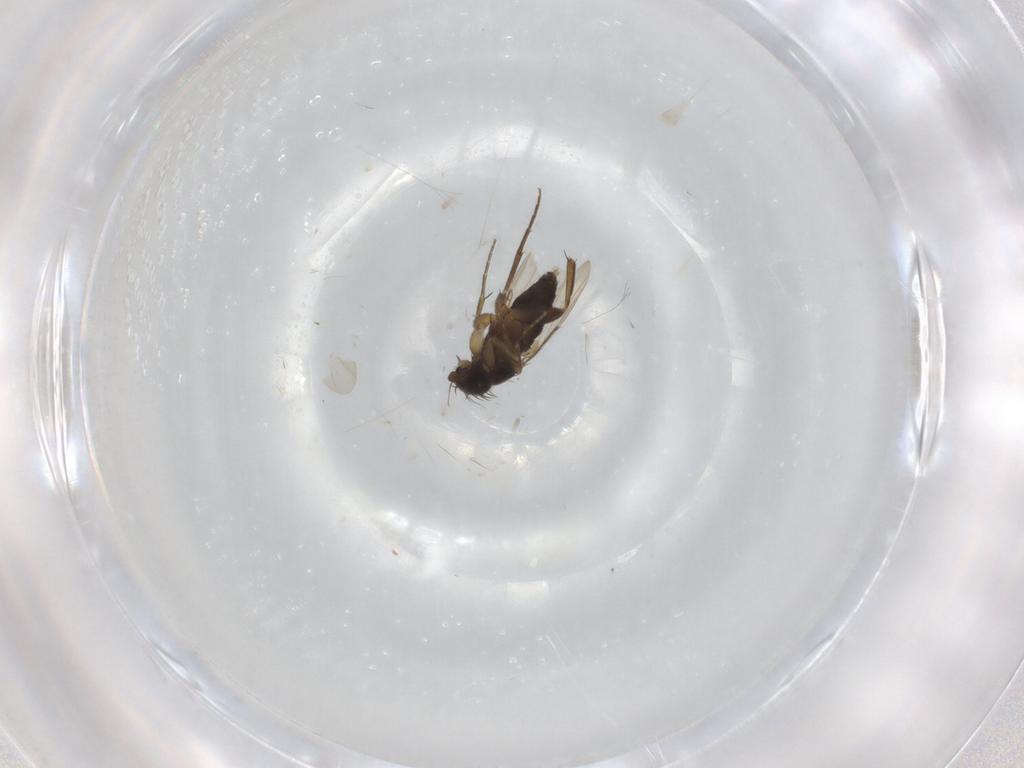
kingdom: Animalia
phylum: Arthropoda
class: Insecta
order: Diptera
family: Phoridae
